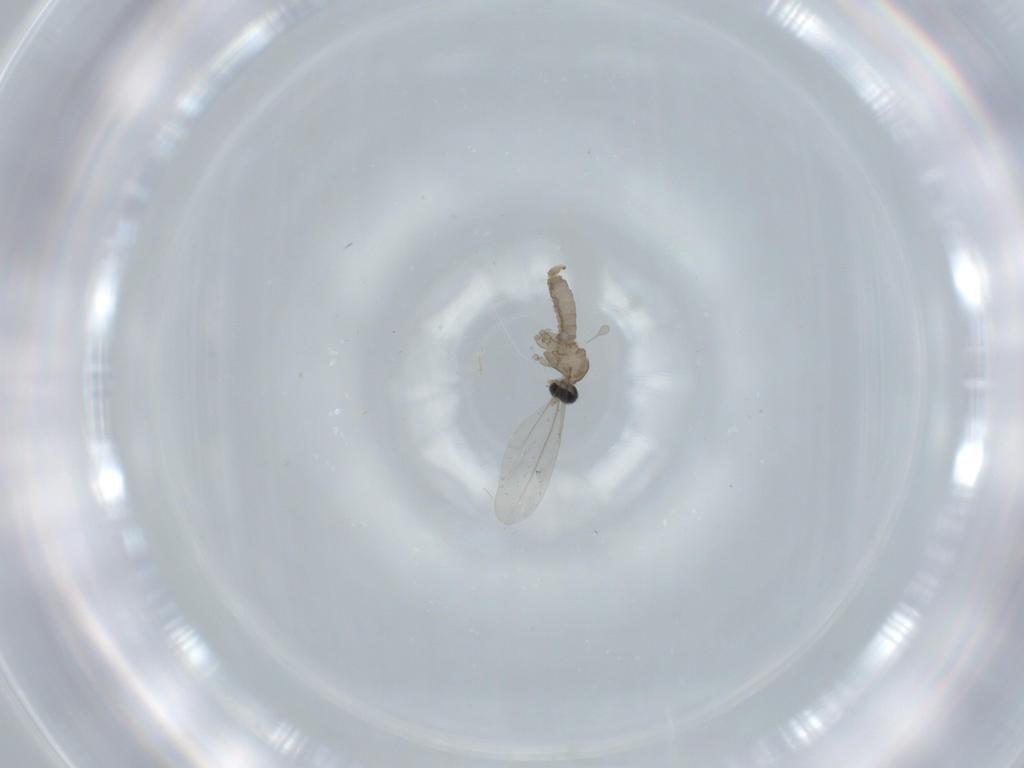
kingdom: Animalia
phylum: Arthropoda
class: Insecta
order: Diptera
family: Cecidomyiidae
